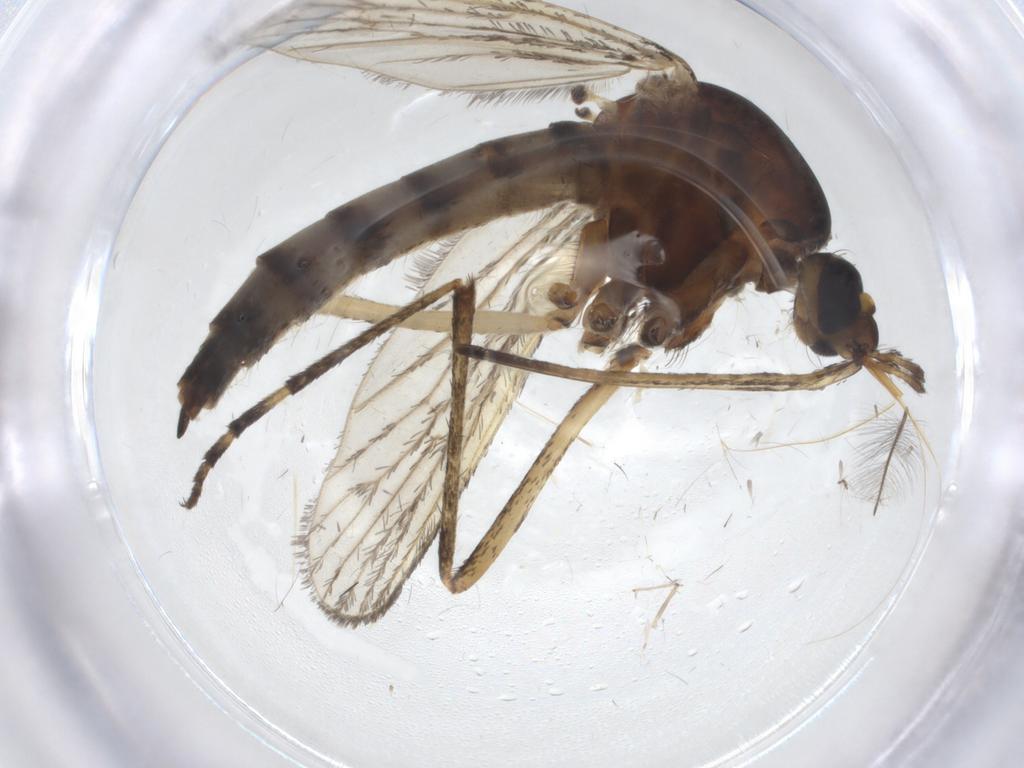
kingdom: Animalia
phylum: Arthropoda
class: Insecta
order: Diptera
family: Chironomidae
